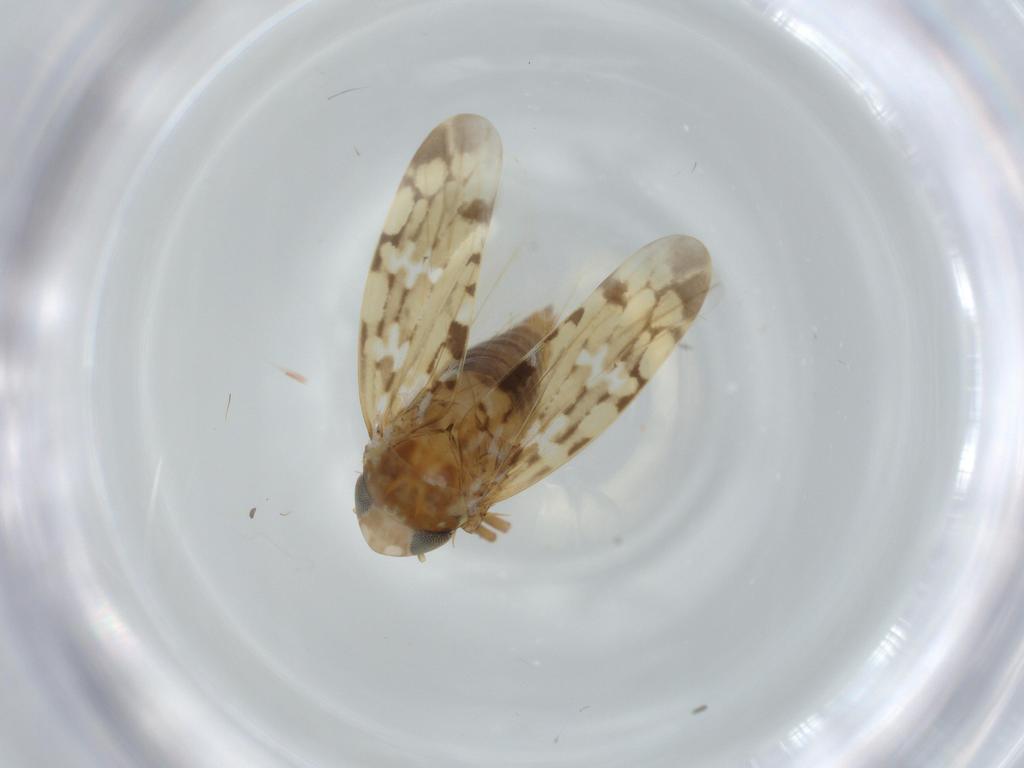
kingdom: Animalia
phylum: Arthropoda
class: Insecta
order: Hemiptera
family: Cicadellidae
